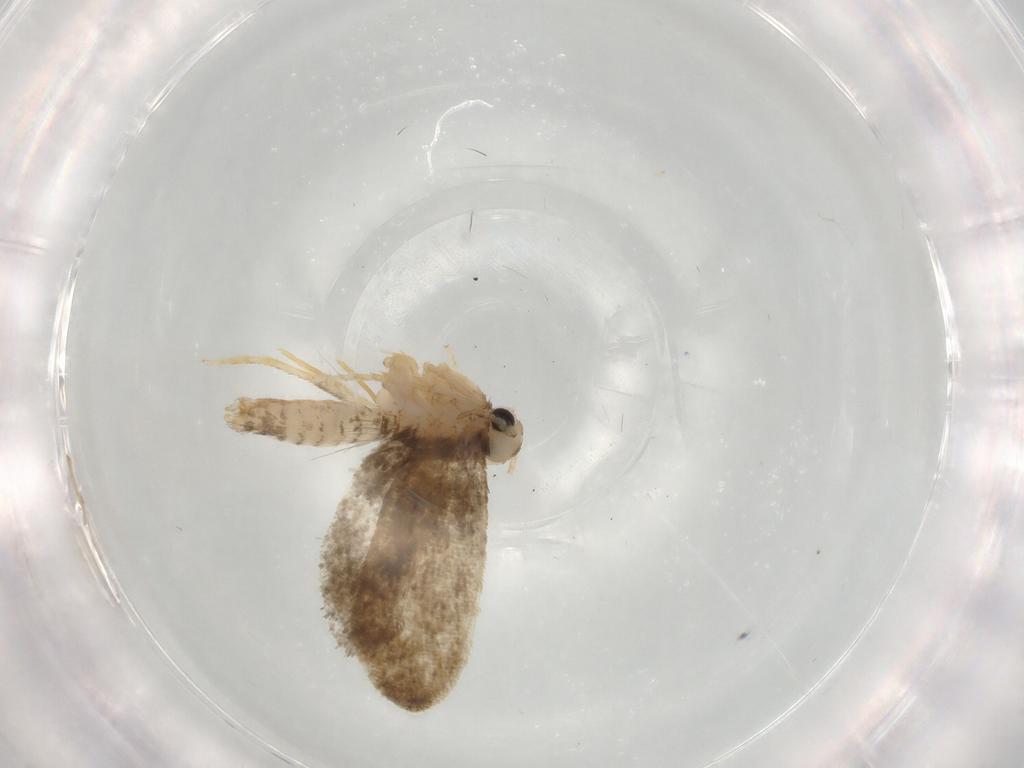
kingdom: Animalia
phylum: Arthropoda
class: Insecta
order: Lepidoptera
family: Psychidae
